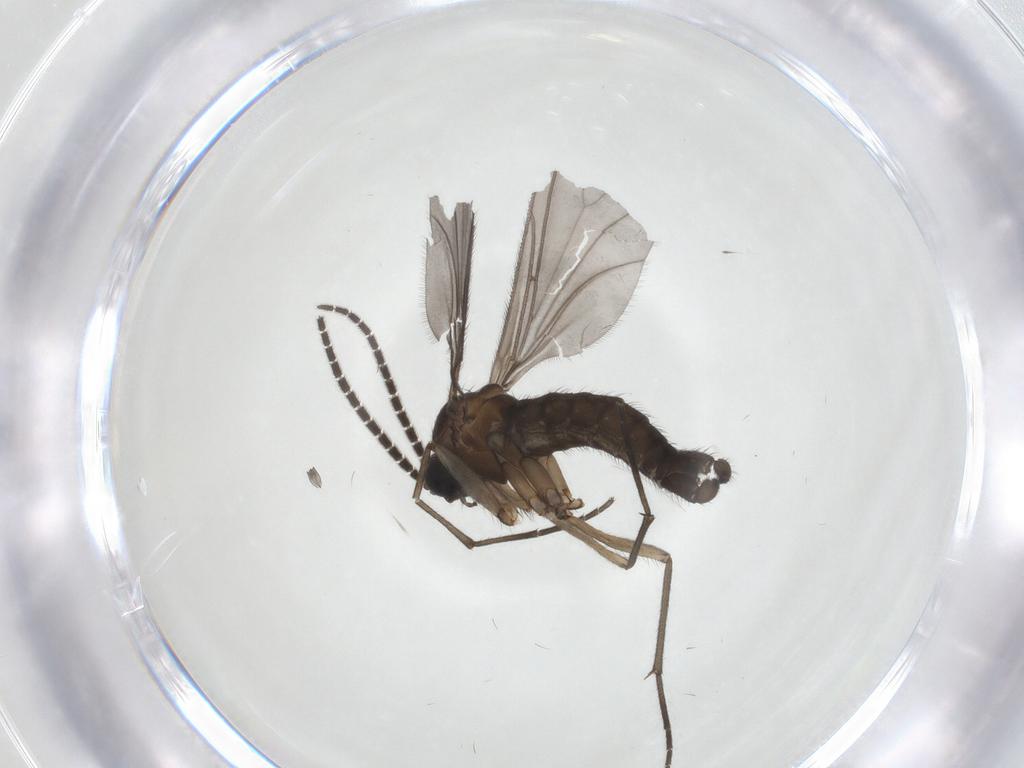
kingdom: Animalia
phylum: Arthropoda
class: Insecta
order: Diptera
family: Sciaridae
